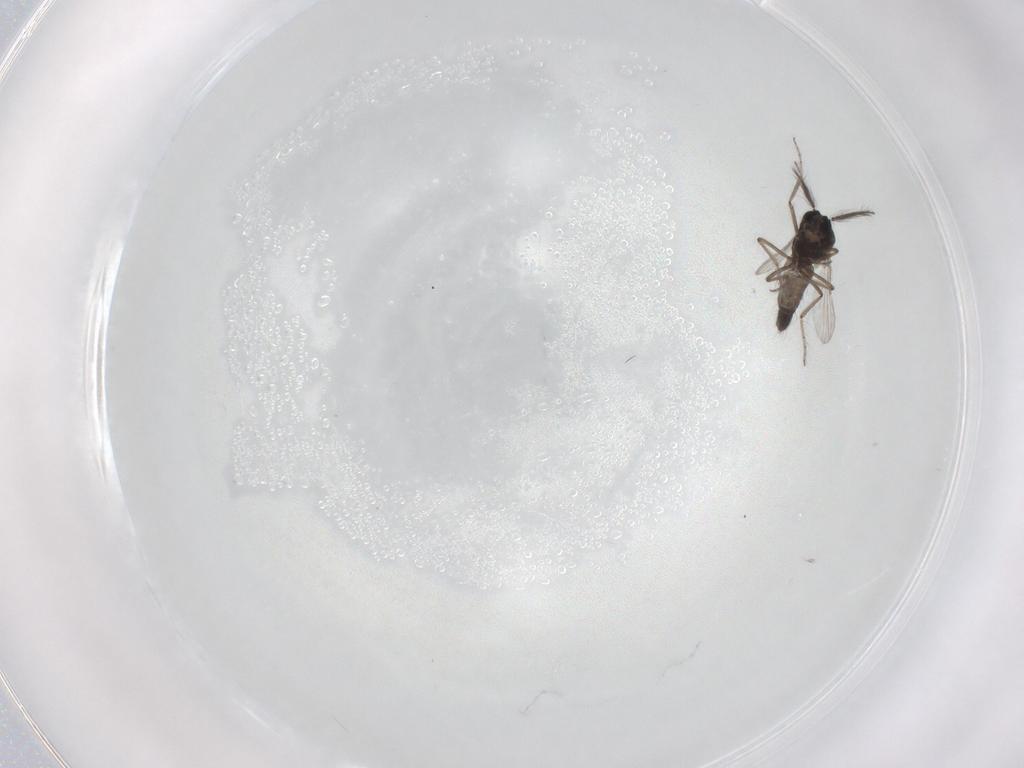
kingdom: Animalia
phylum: Arthropoda
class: Insecta
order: Diptera
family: Ceratopogonidae
